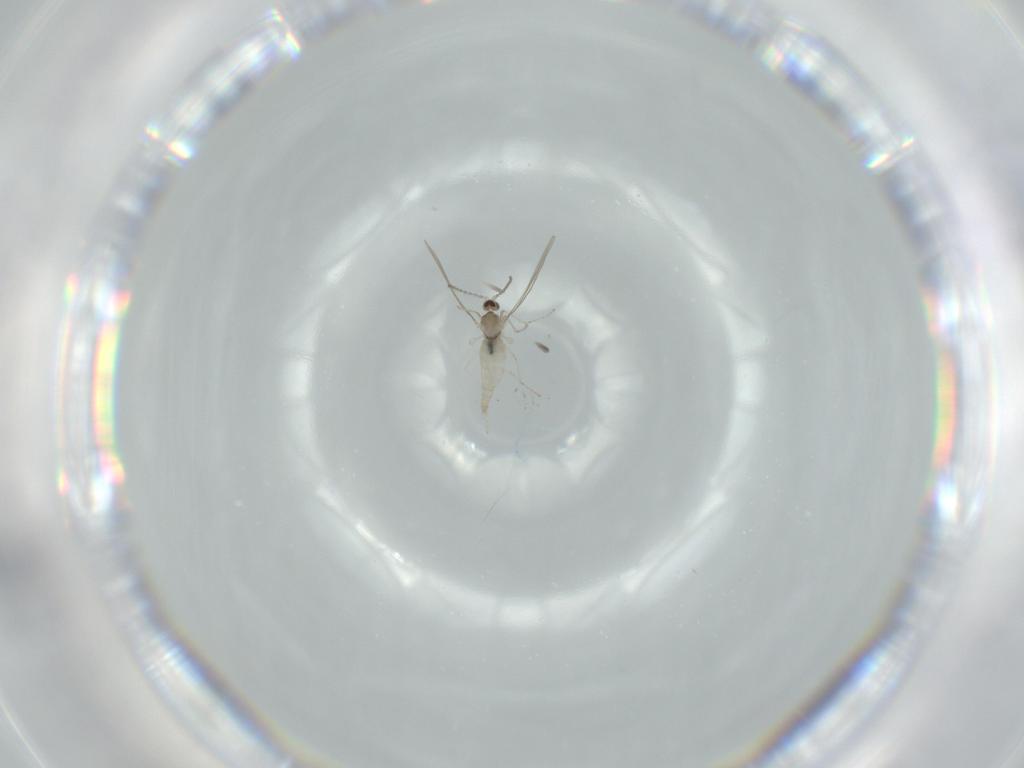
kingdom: Animalia
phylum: Arthropoda
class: Insecta
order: Diptera
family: Cecidomyiidae
